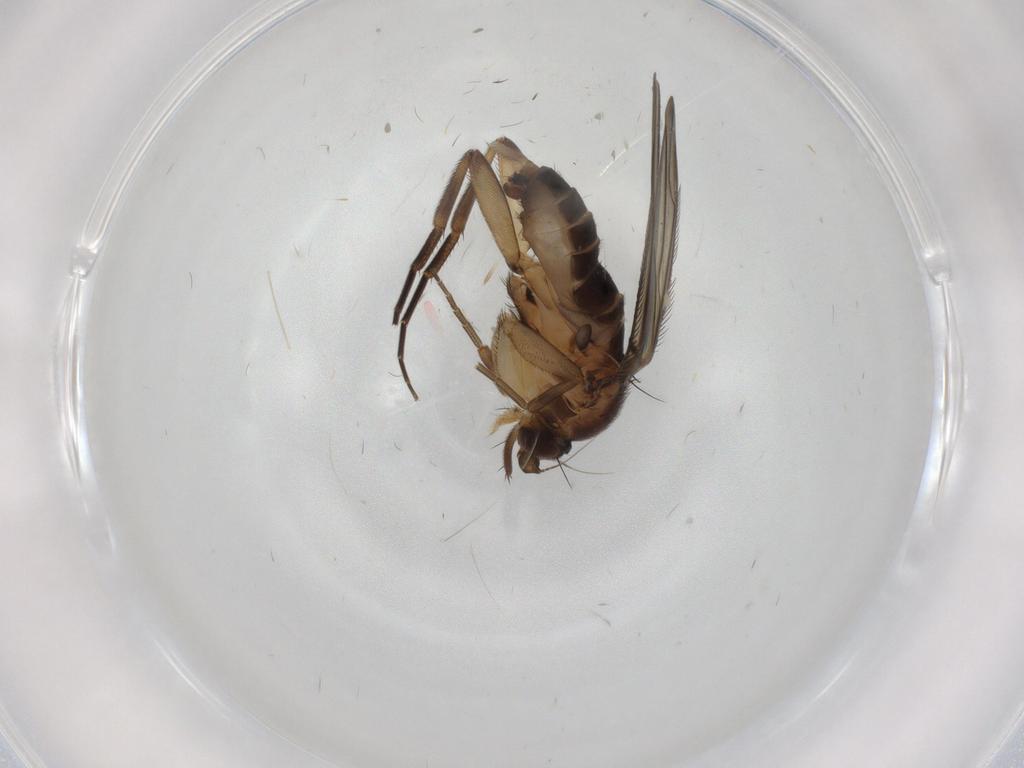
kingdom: Animalia
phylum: Arthropoda
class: Insecta
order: Diptera
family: Phoridae
